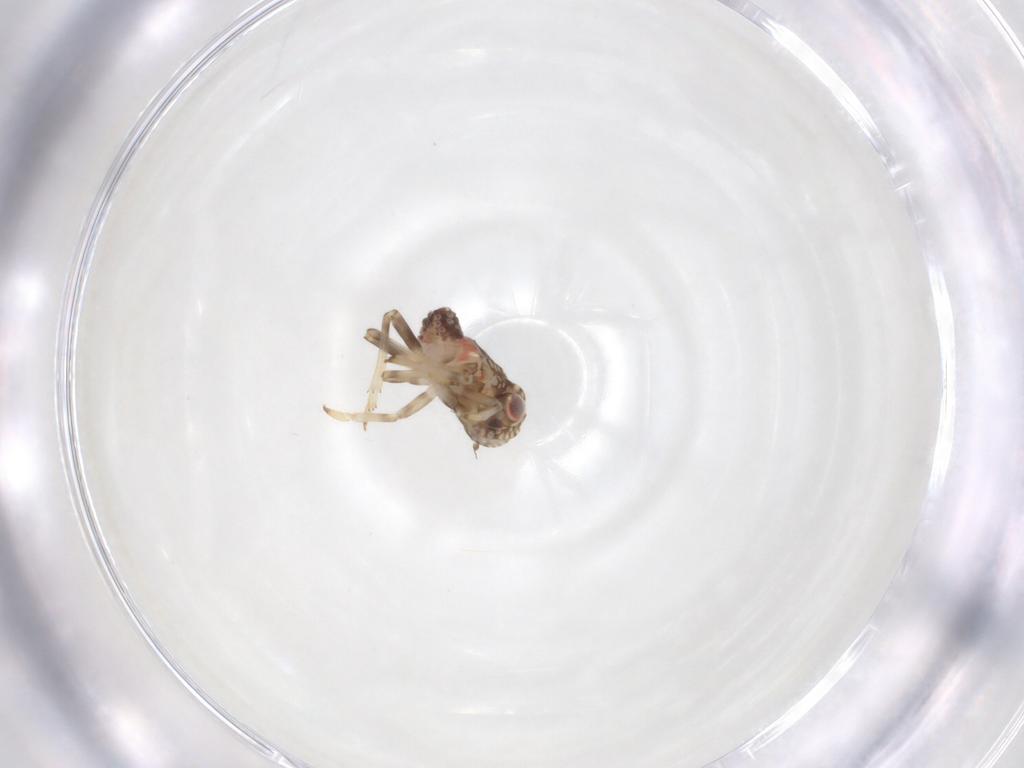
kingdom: Animalia
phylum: Arthropoda
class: Insecta
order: Hemiptera
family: Tropiduchidae
